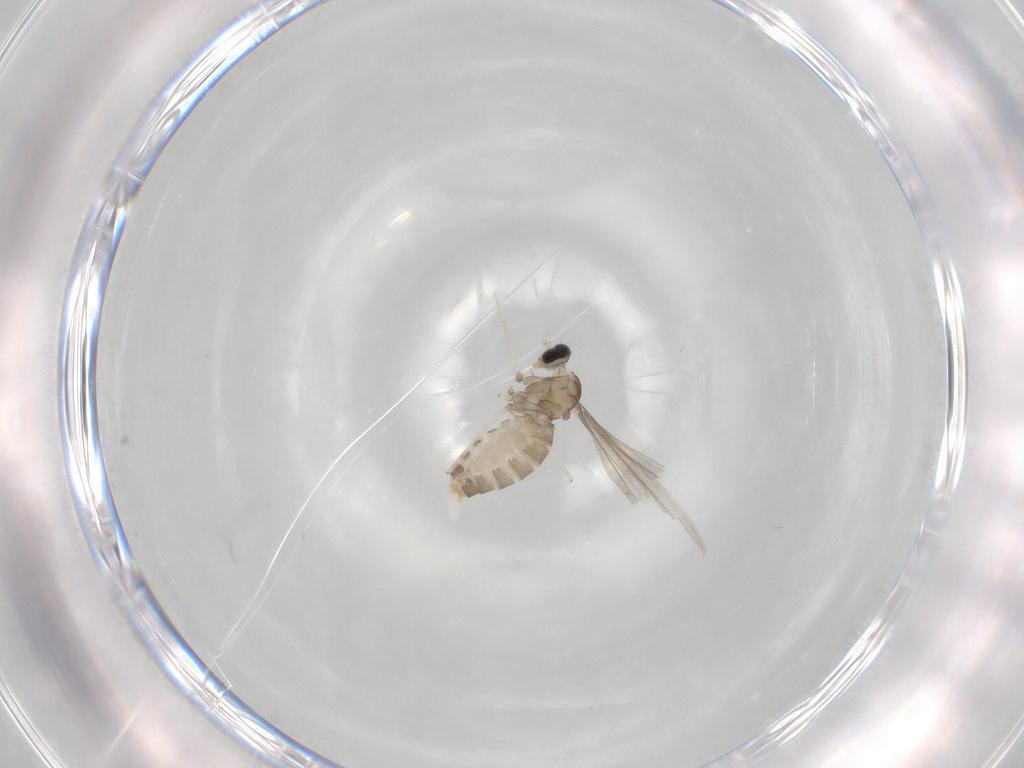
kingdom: Animalia
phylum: Arthropoda
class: Insecta
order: Diptera
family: Cecidomyiidae
